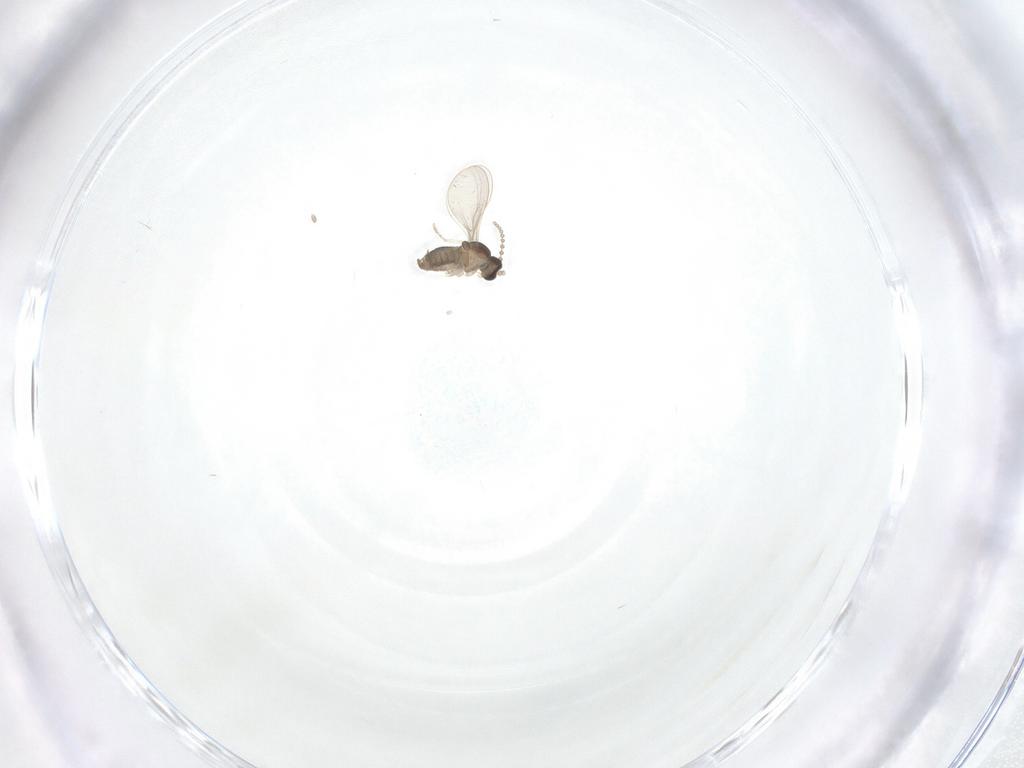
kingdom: Animalia
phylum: Arthropoda
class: Insecta
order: Diptera
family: Cecidomyiidae
